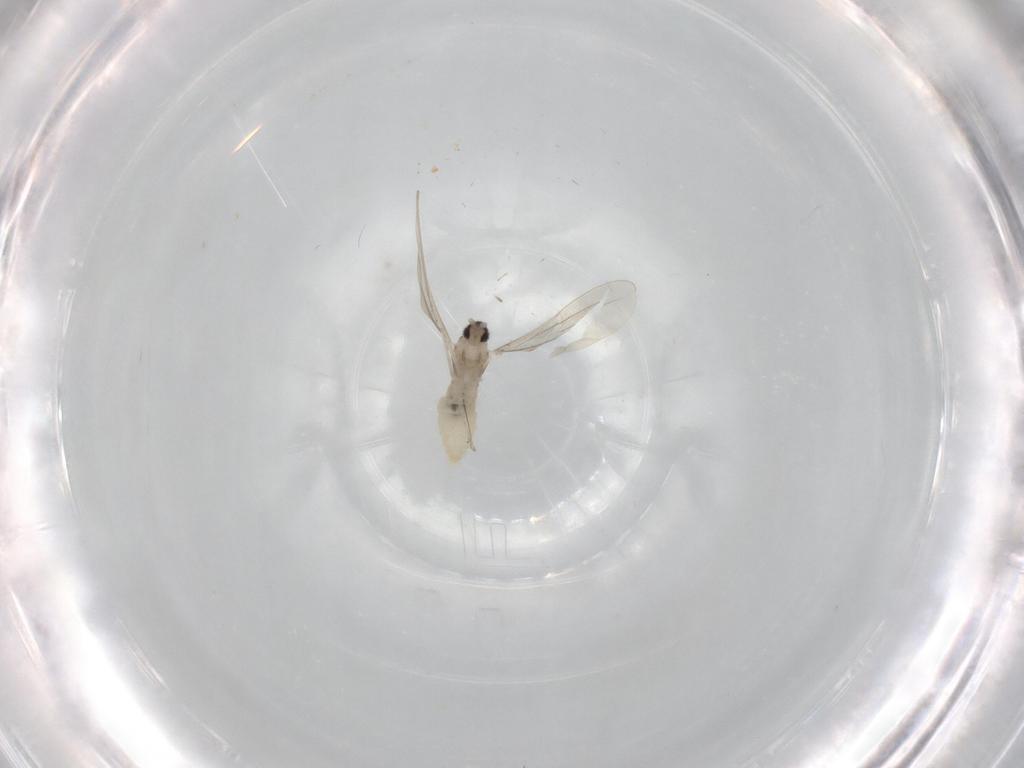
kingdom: Animalia
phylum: Arthropoda
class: Insecta
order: Diptera
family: Cecidomyiidae
